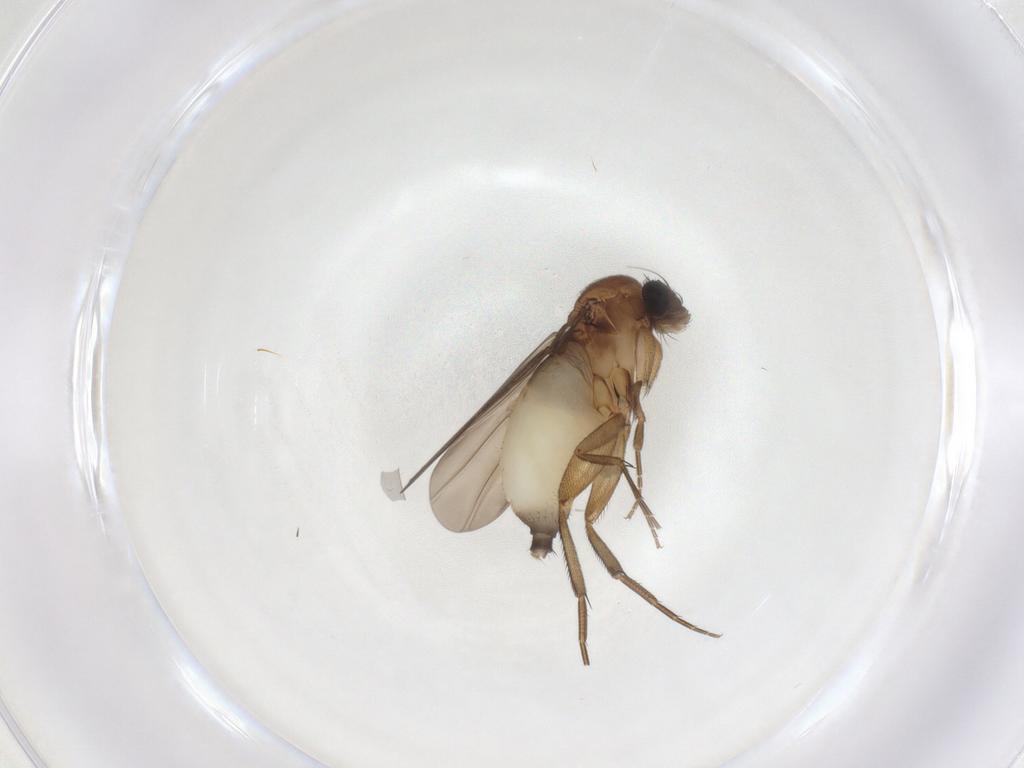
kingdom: Animalia
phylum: Arthropoda
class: Insecta
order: Diptera
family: Phoridae
